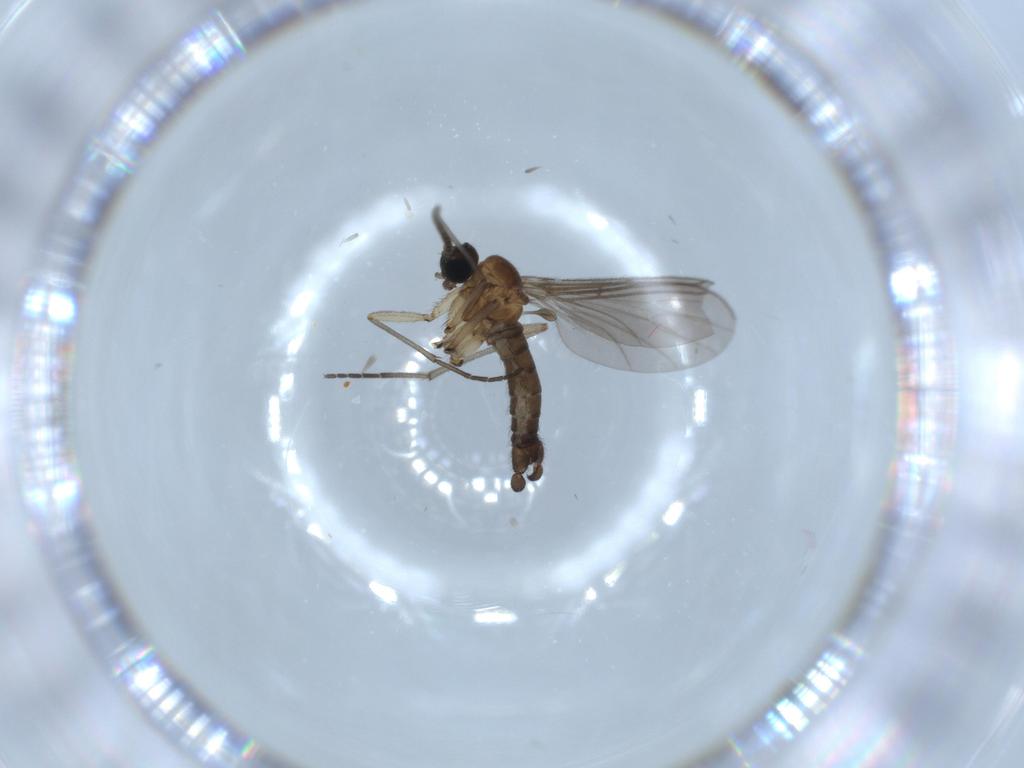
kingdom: Animalia
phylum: Arthropoda
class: Insecta
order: Diptera
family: Sciaridae
